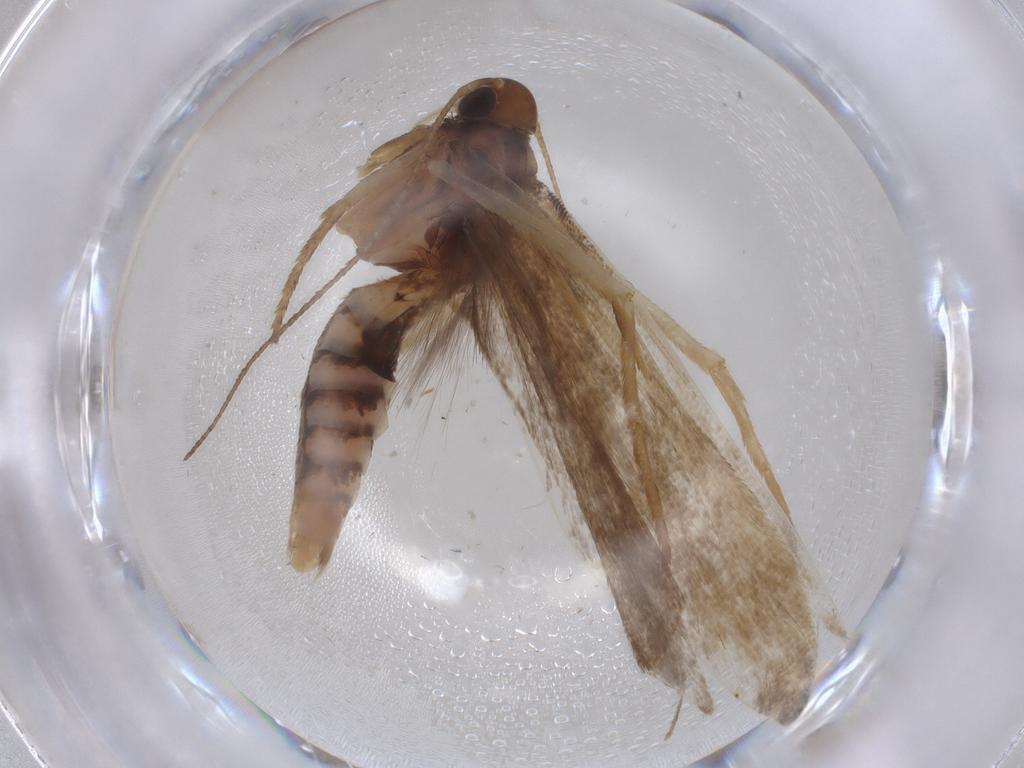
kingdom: Animalia
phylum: Arthropoda
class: Insecta
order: Lepidoptera
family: Gelechiidae
